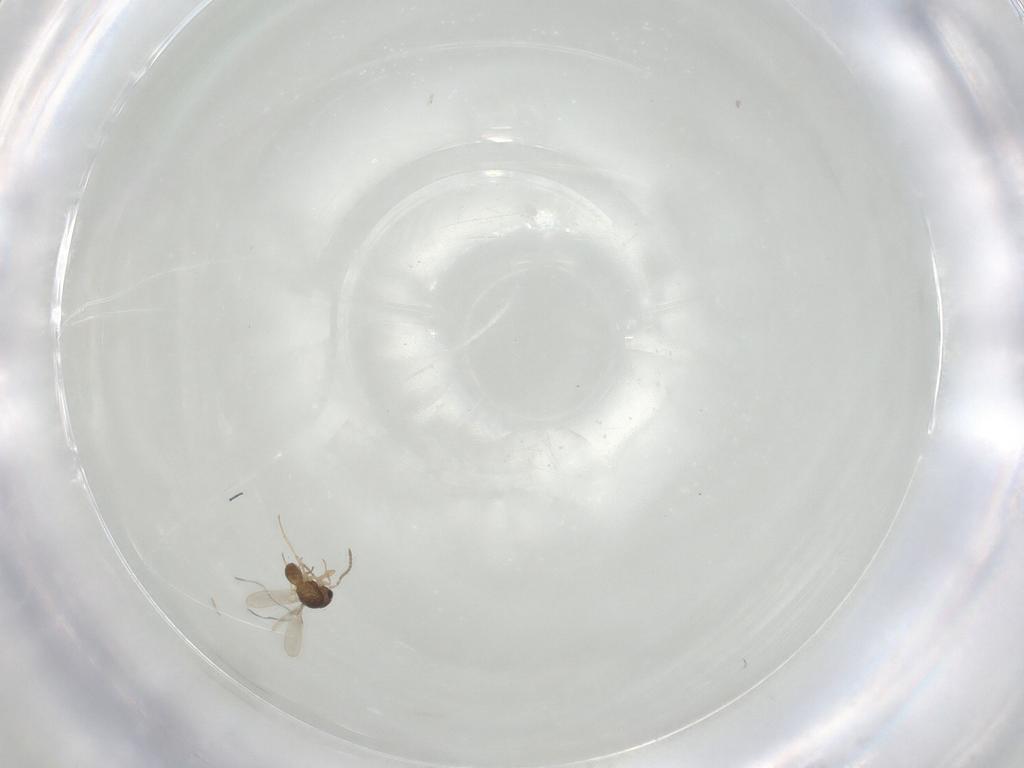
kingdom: Animalia
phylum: Arthropoda
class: Insecta
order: Hymenoptera
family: Scelionidae
